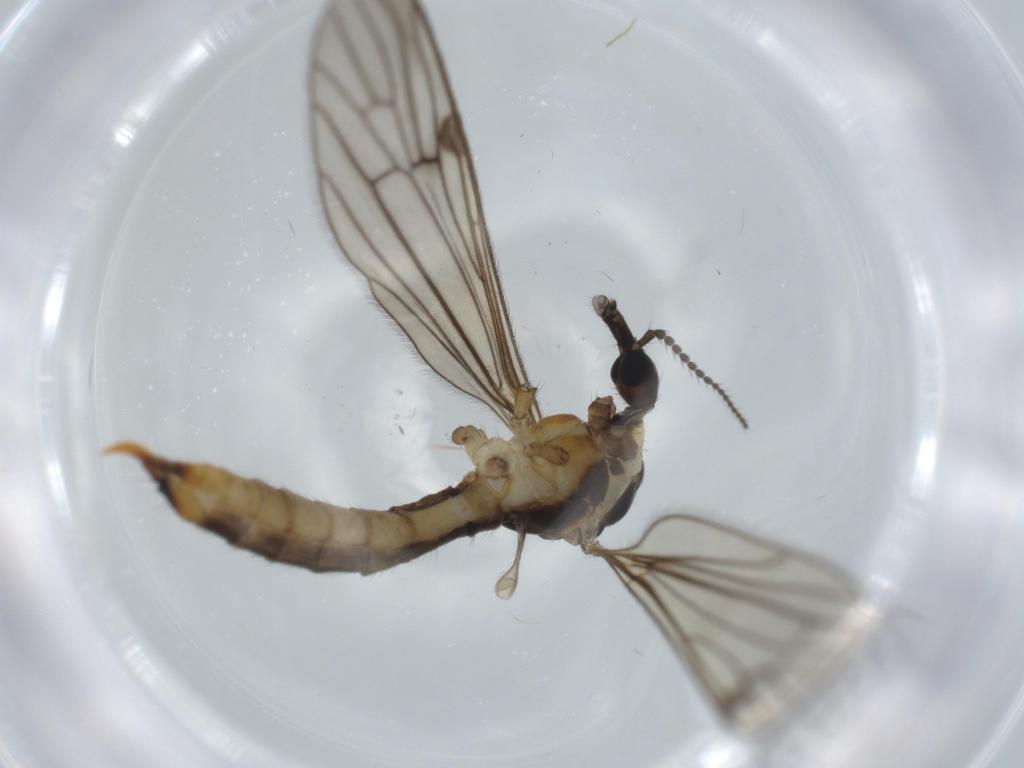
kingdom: Animalia
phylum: Arthropoda
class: Insecta
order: Diptera
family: Limoniidae
